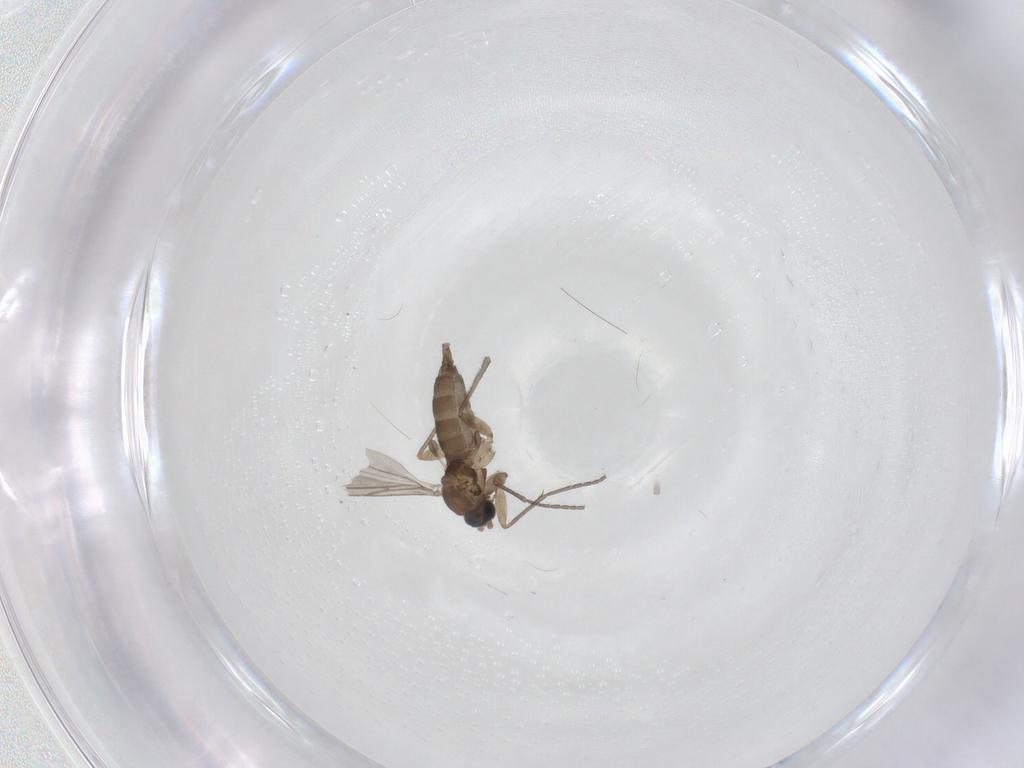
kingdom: Animalia
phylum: Arthropoda
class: Insecta
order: Diptera
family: Sciaridae
